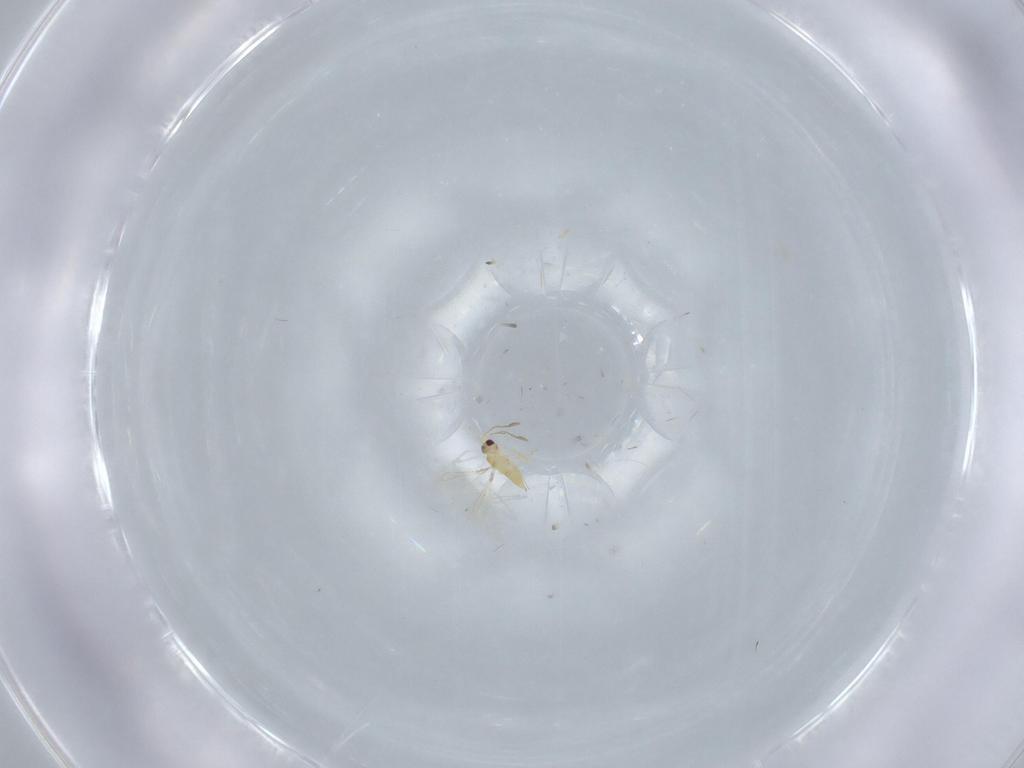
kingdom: Animalia
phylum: Arthropoda
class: Insecta
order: Hymenoptera
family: Mymaridae
